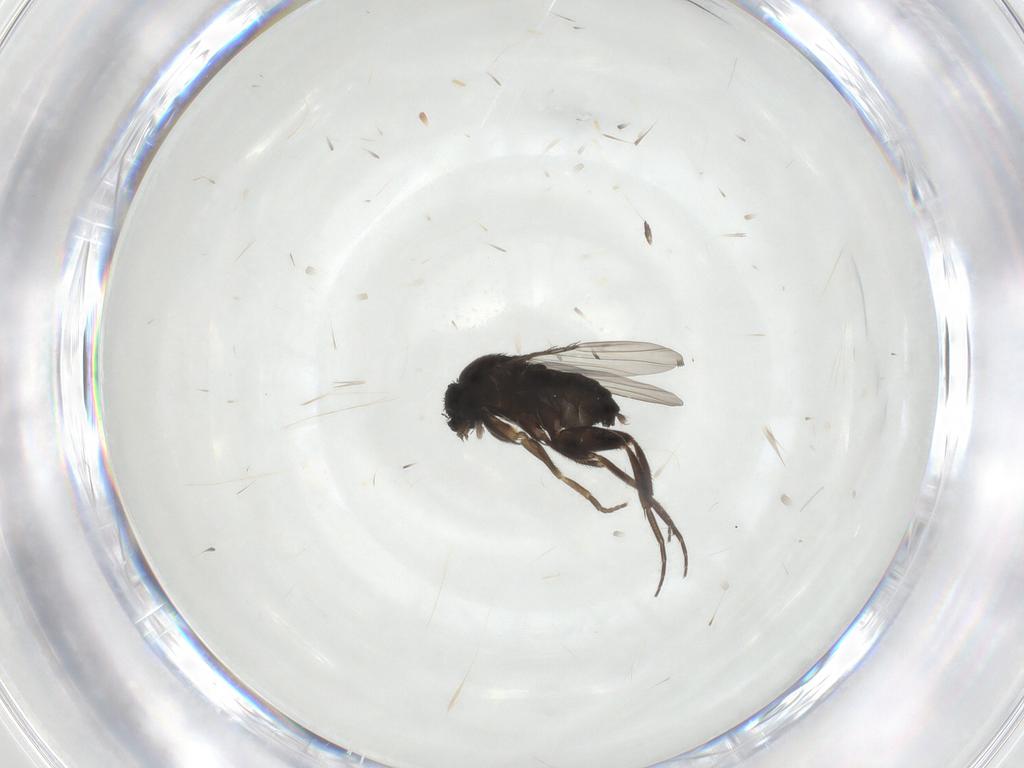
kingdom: Animalia
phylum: Arthropoda
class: Insecta
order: Diptera
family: Phoridae
